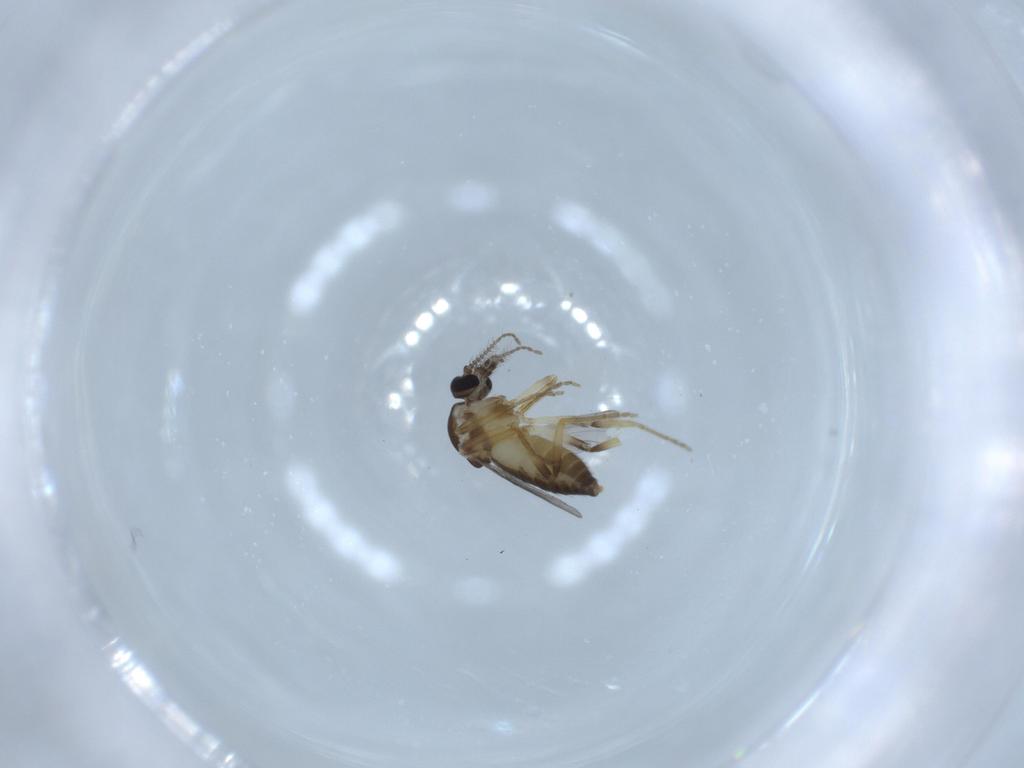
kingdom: Animalia
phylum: Arthropoda
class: Insecta
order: Diptera
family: Ceratopogonidae
